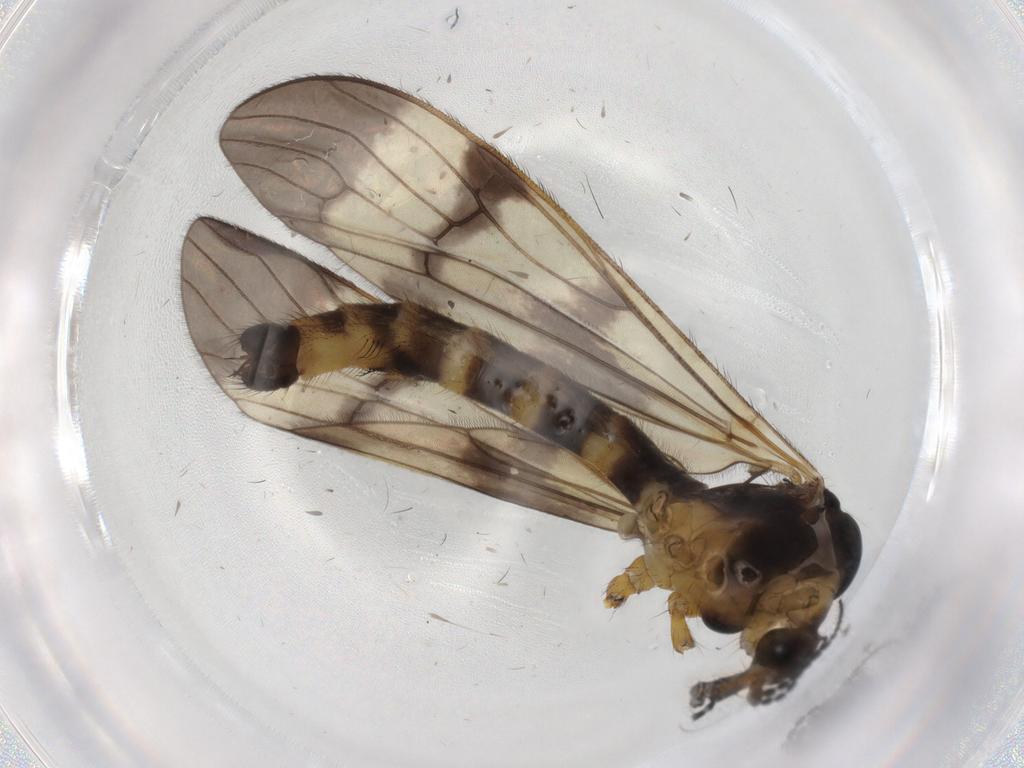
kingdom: Animalia
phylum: Arthropoda
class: Insecta
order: Diptera
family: Limoniidae
